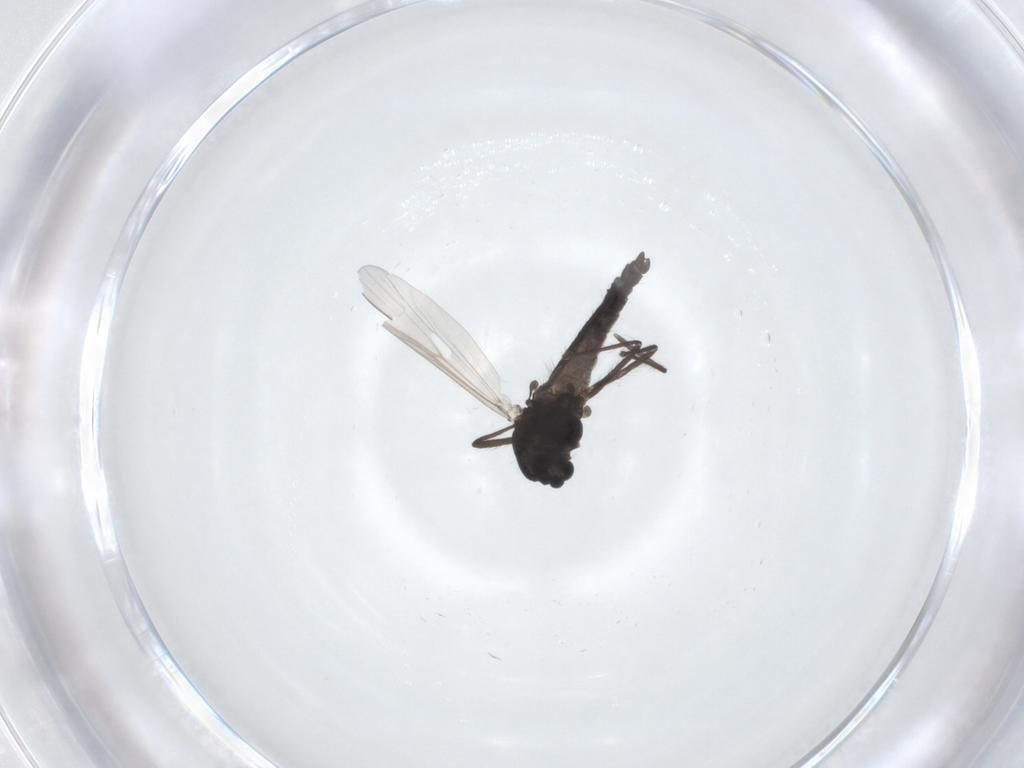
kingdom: Animalia
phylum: Arthropoda
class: Insecta
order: Diptera
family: Chironomidae
